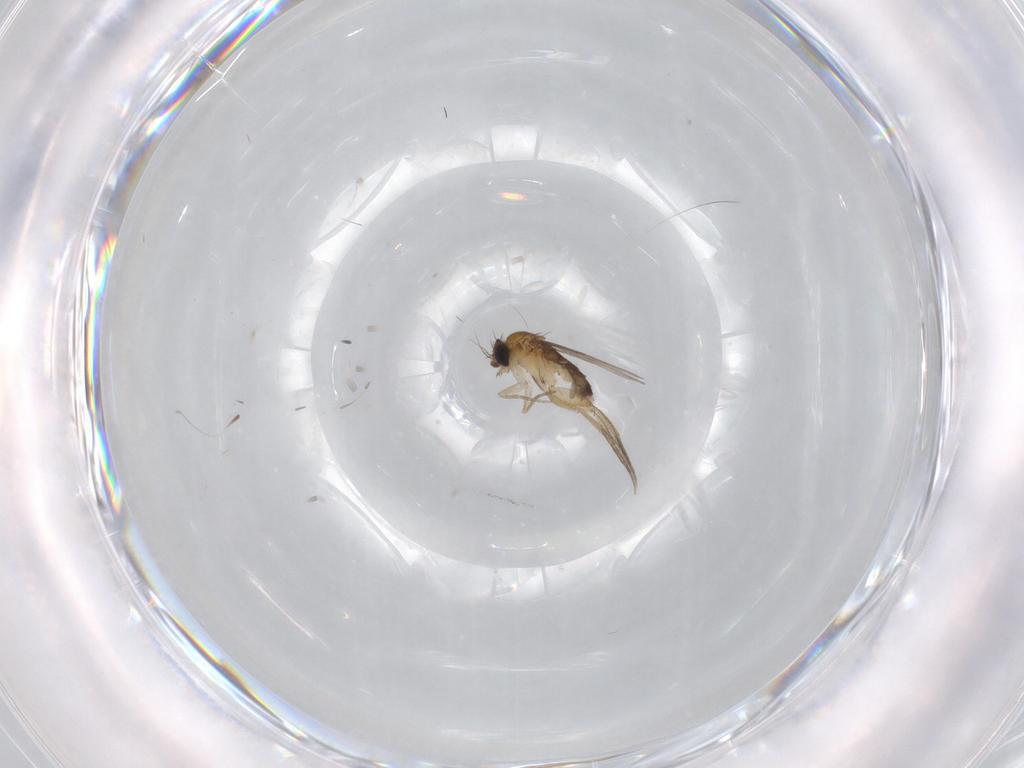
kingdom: Animalia
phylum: Arthropoda
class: Insecta
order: Diptera
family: Phoridae
